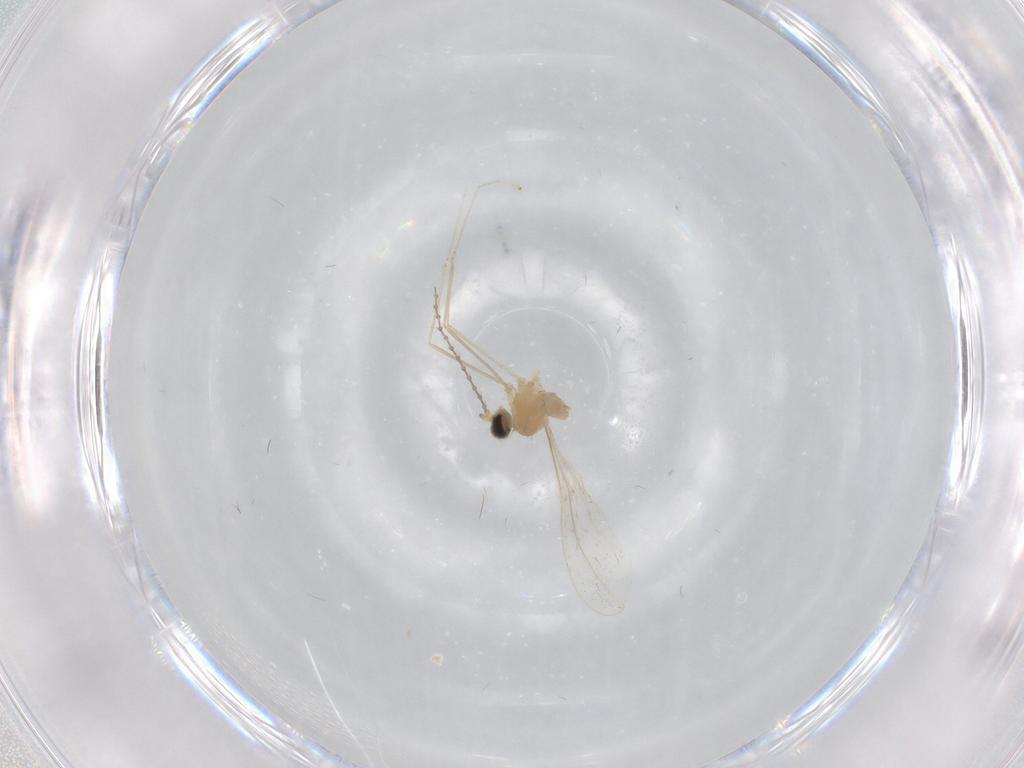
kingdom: Animalia
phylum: Arthropoda
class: Insecta
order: Diptera
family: Cecidomyiidae
